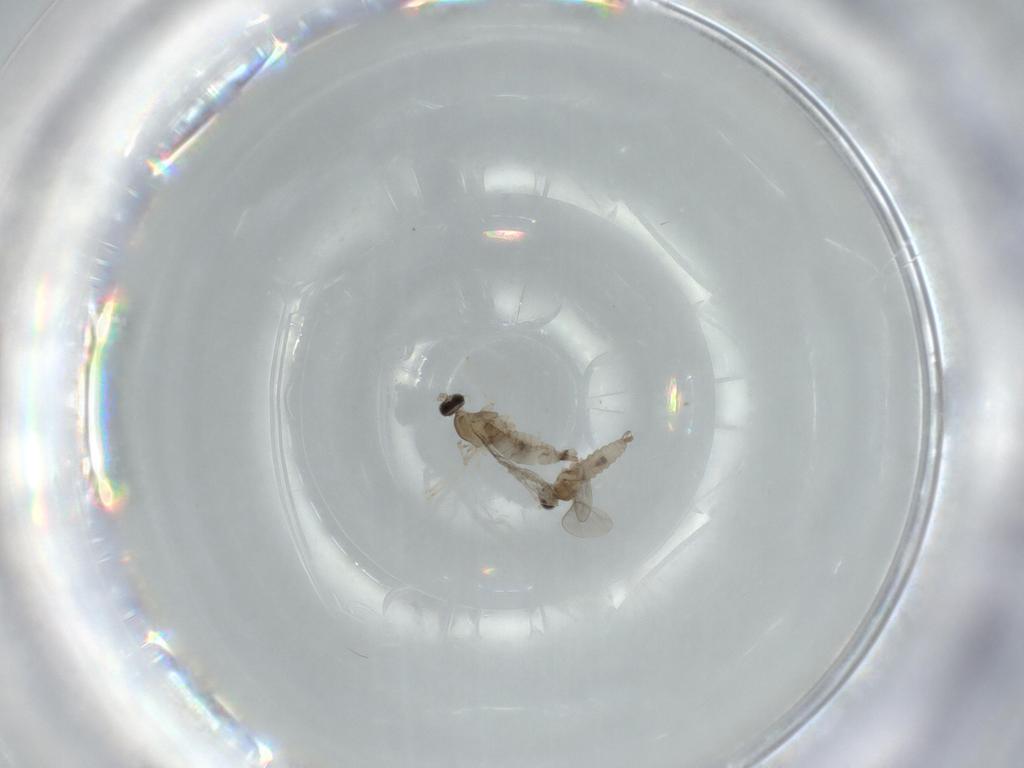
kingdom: Animalia
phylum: Arthropoda
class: Insecta
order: Diptera
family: Cecidomyiidae
